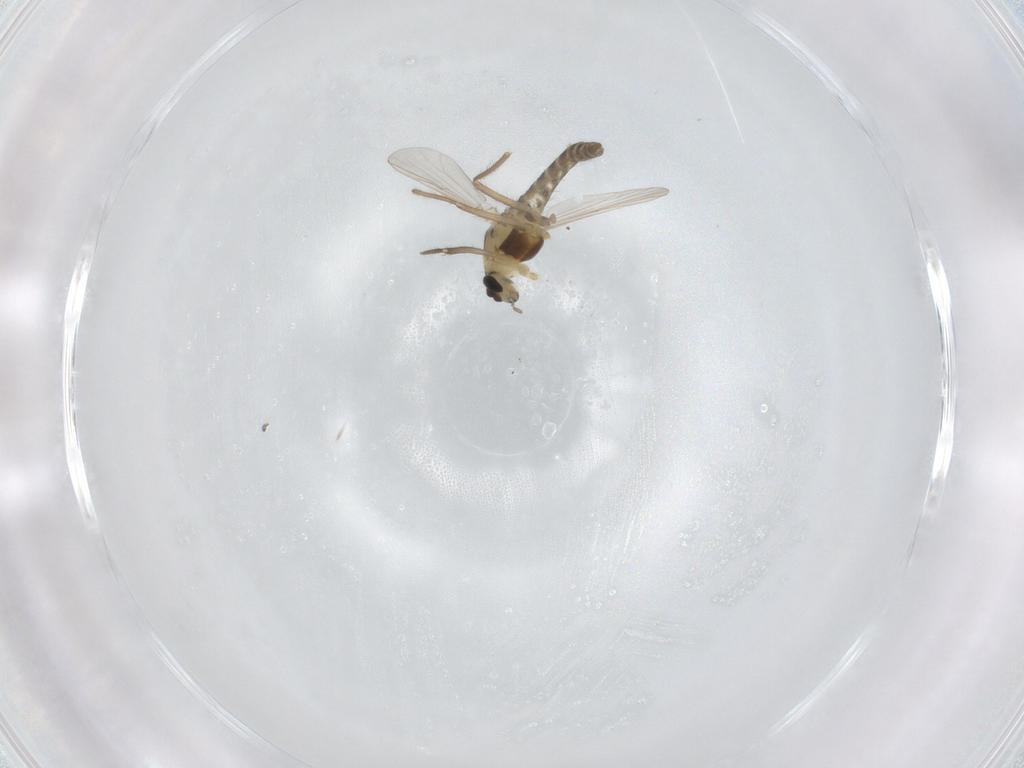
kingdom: Animalia
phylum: Arthropoda
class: Insecta
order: Diptera
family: Chironomidae
